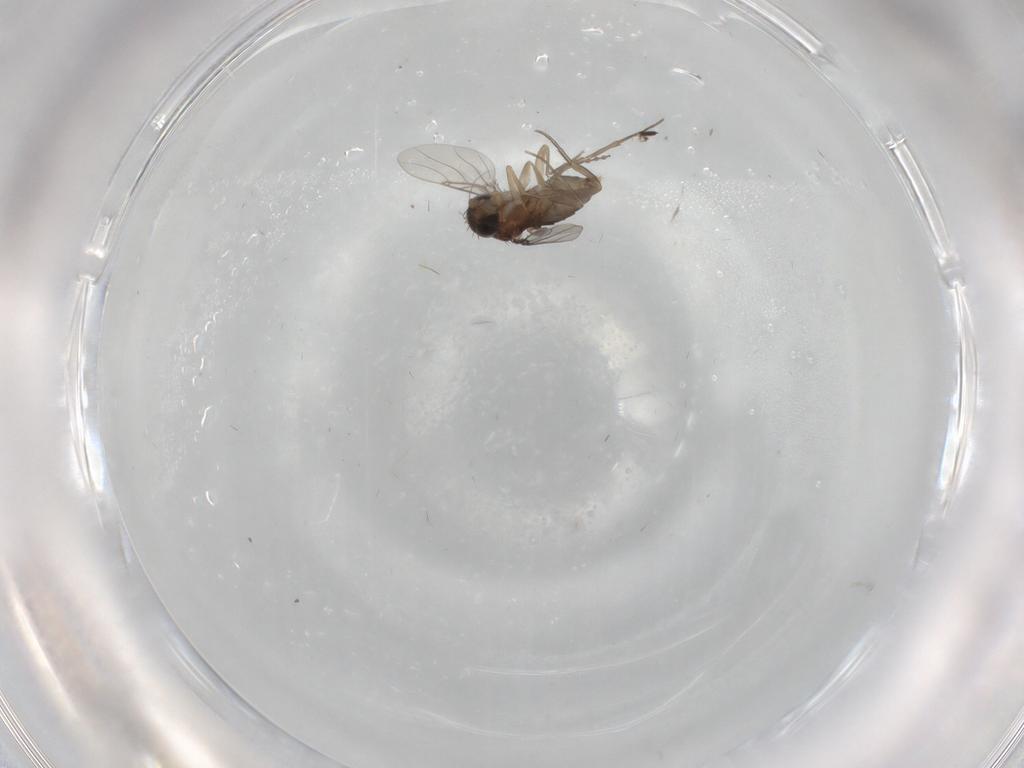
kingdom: Animalia
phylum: Arthropoda
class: Insecta
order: Diptera
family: Phoridae
